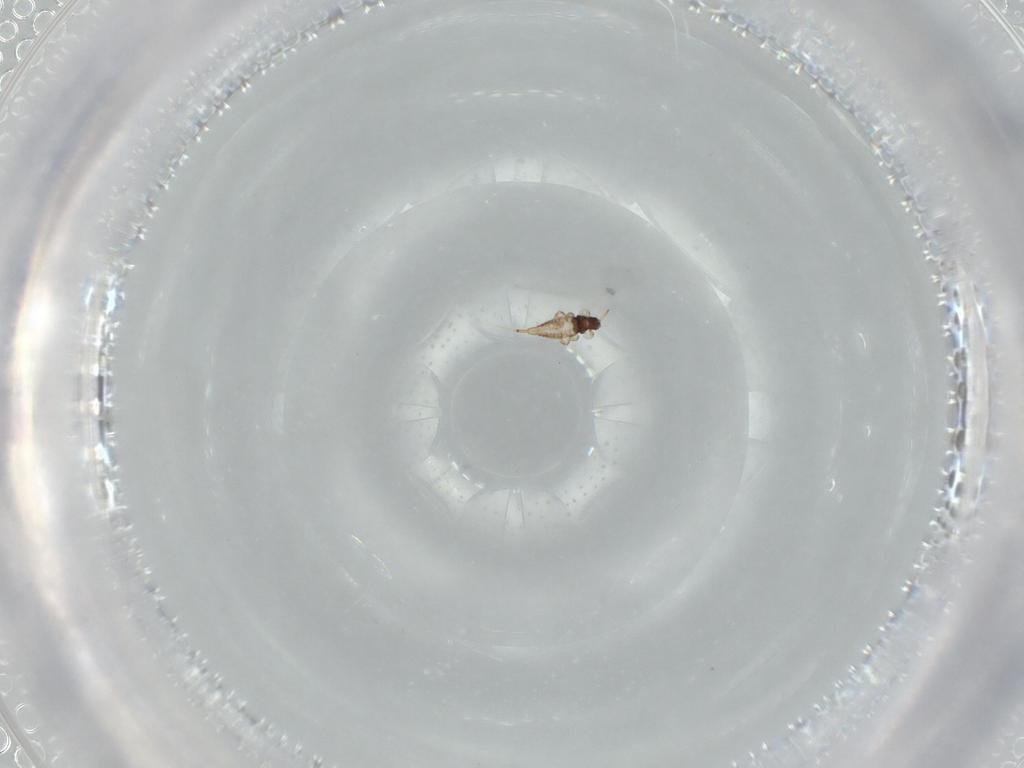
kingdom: Animalia
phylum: Arthropoda
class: Insecta
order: Thysanoptera
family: Phlaeothripidae
